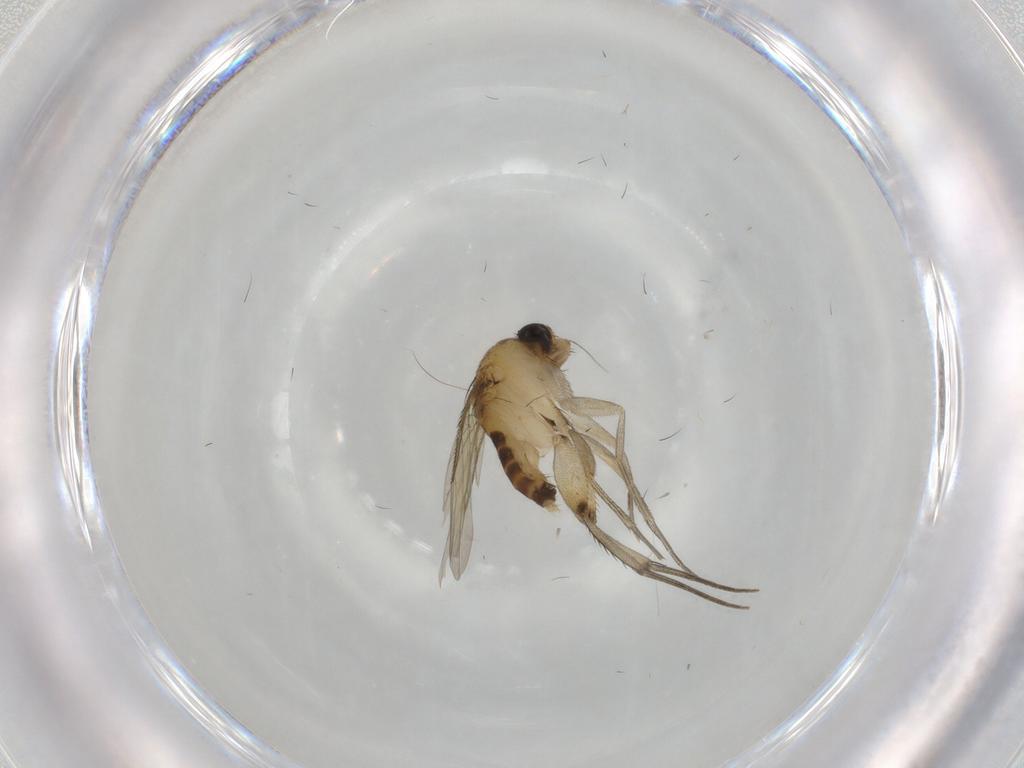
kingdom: Animalia
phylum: Arthropoda
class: Insecta
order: Diptera
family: Phoridae
